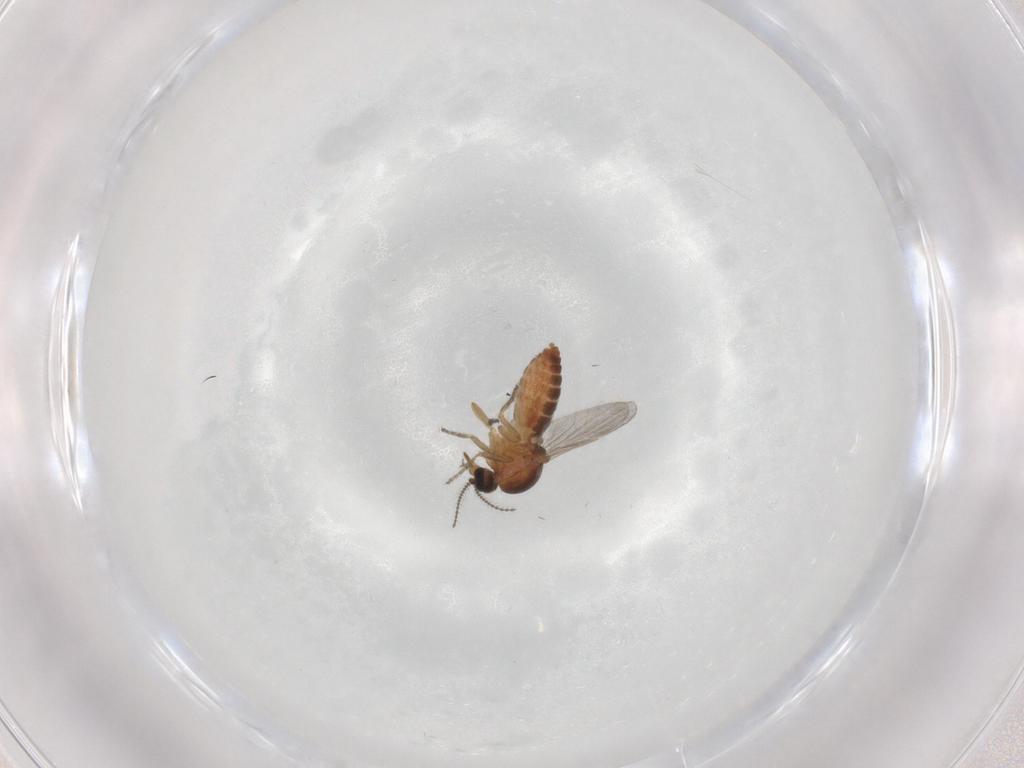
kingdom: Animalia
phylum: Arthropoda
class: Insecta
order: Diptera
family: Ceratopogonidae
